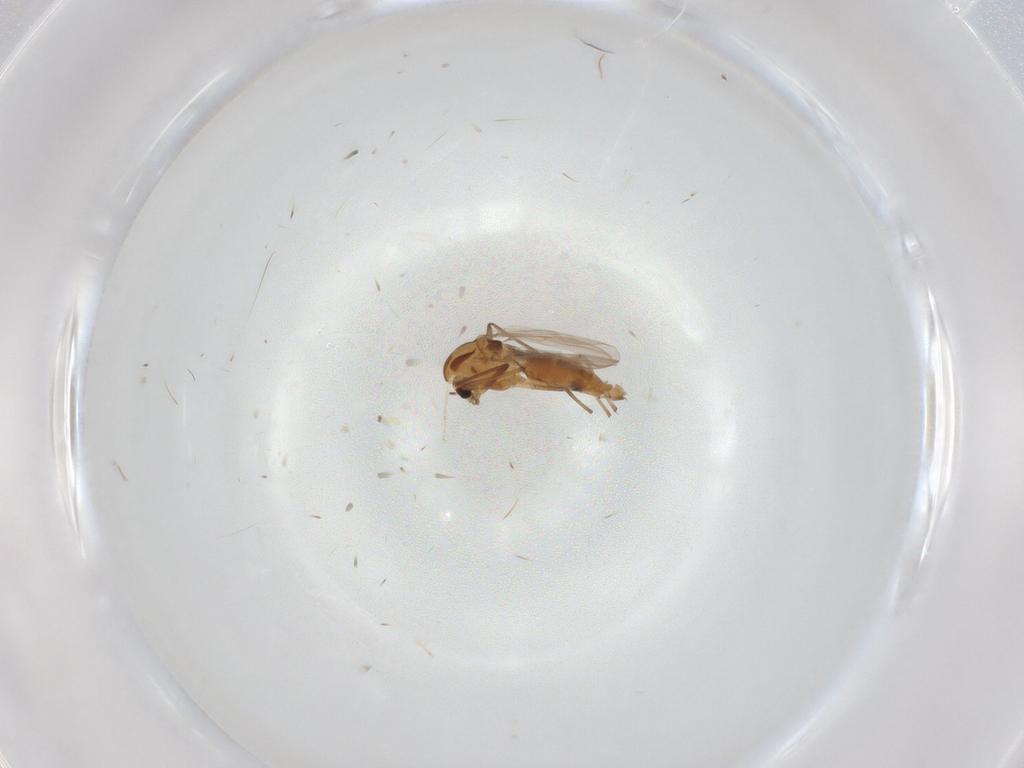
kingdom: Animalia
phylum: Arthropoda
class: Insecta
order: Diptera
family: Chironomidae
